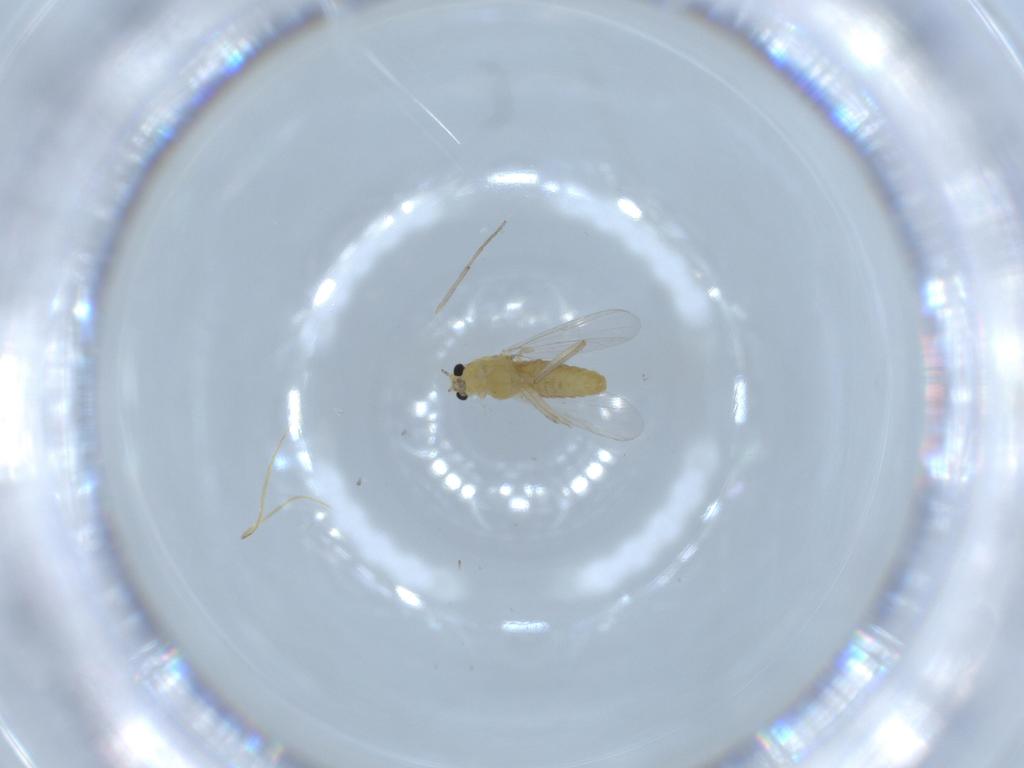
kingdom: Animalia
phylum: Arthropoda
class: Insecta
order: Diptera
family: Chironomidae
